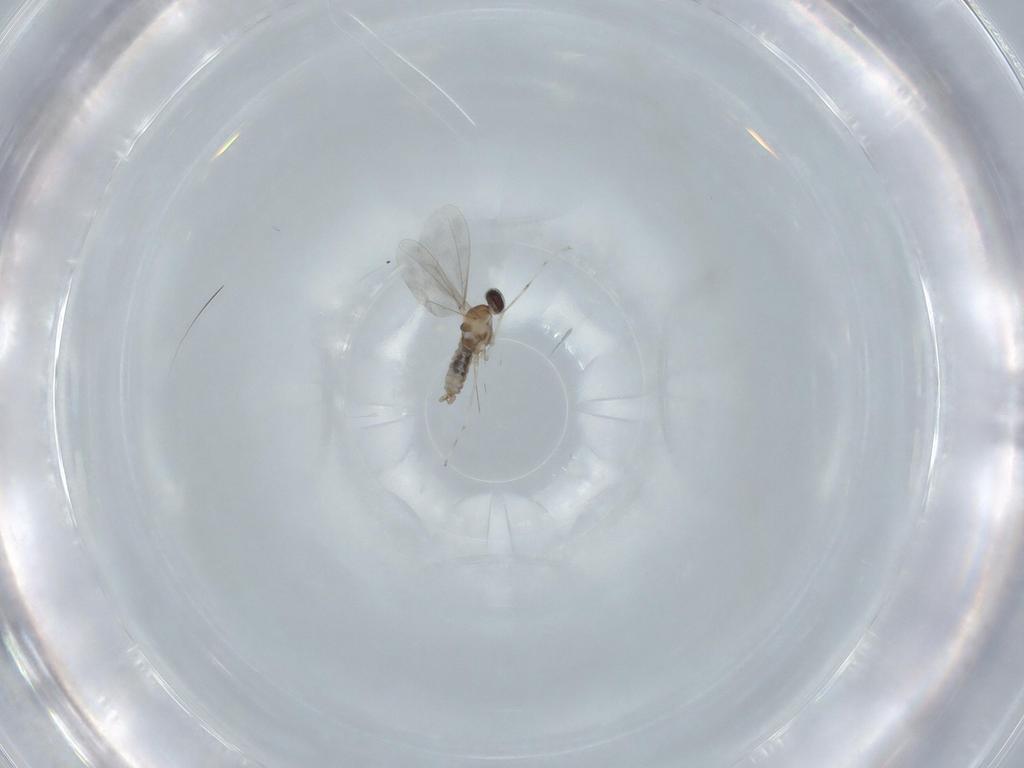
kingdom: Animalia
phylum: Arthropoda
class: Insecta
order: Diptera
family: Cecidomyiidae
